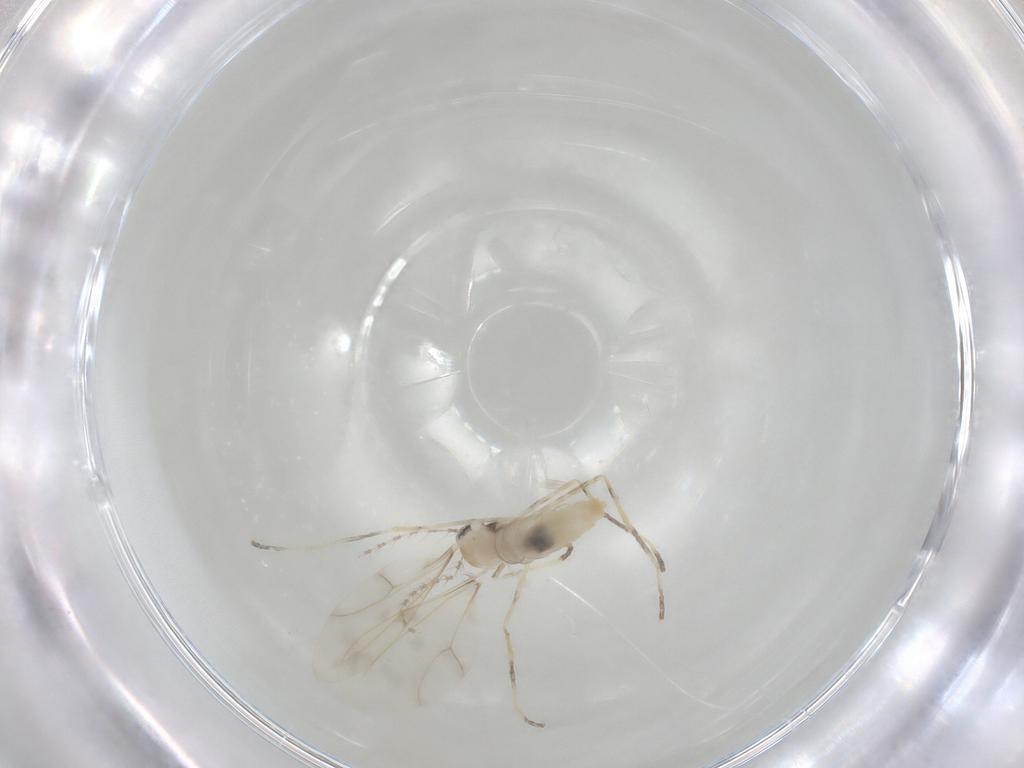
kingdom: Animalia
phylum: Arthropoda
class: Insecta
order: Diptera
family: Cecidomyiidae
